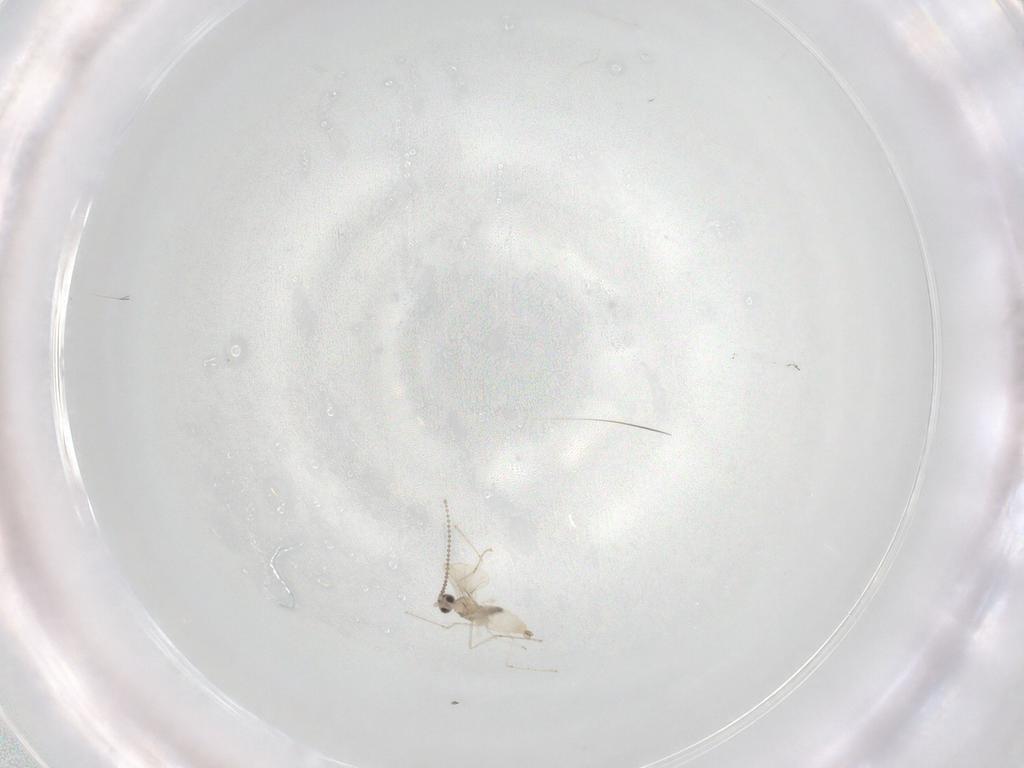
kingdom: Animalia
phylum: Arthropoda
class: Insecta
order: Diptera
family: Cecidomyiidae
